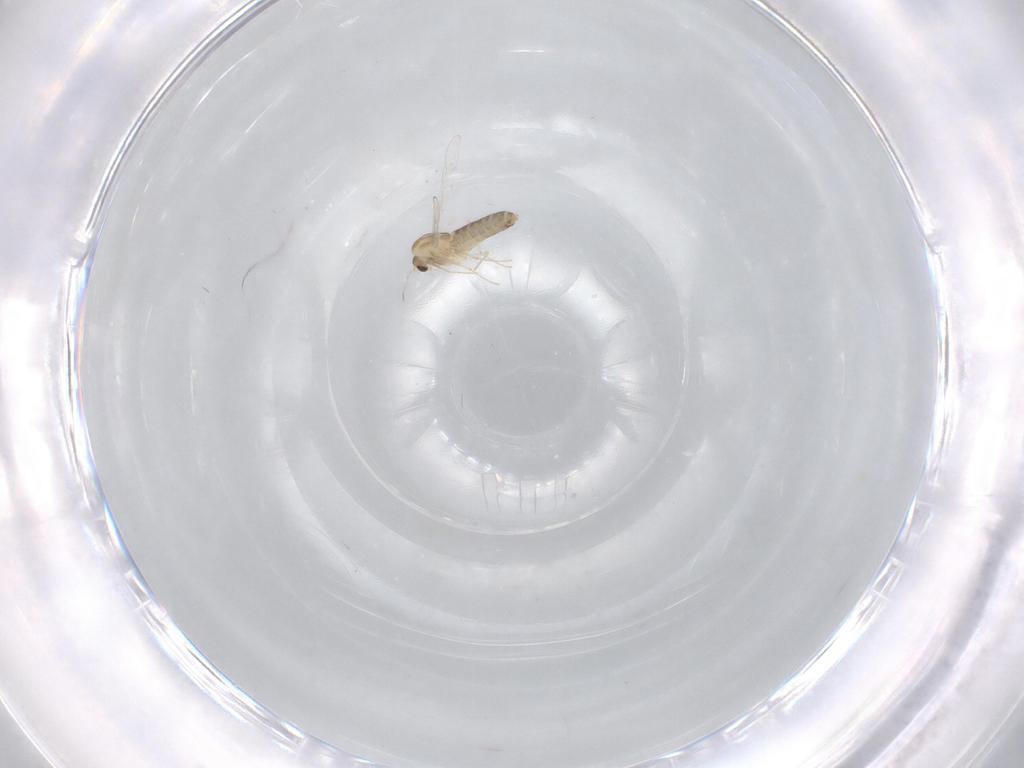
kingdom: Animalia
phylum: Arthropoda
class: Insecta
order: Diptera
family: Chironomidae
